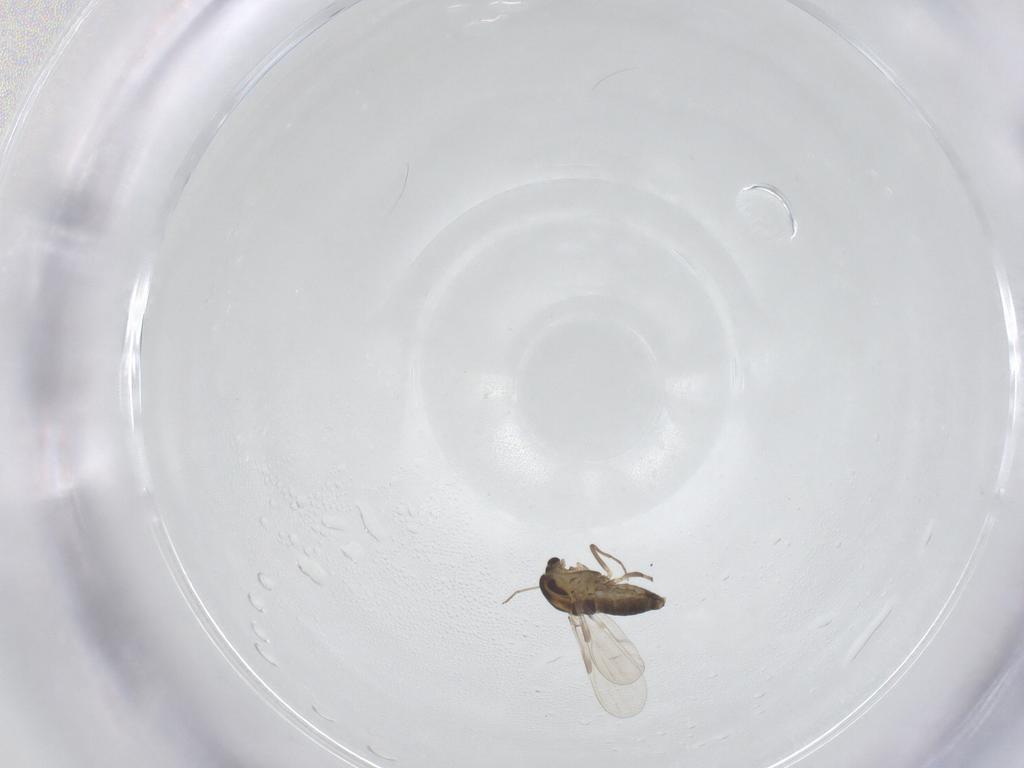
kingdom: Animalia
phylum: Arthropoda
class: Insecta
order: Diptera
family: Chironomidae
